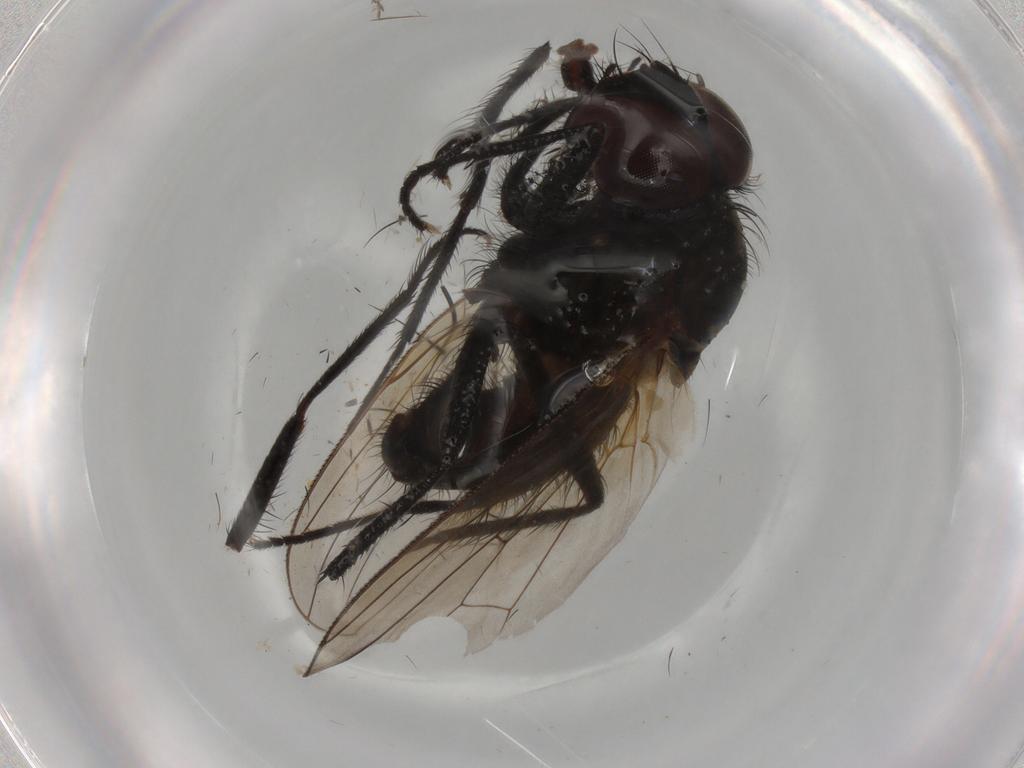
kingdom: Animalia
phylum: Arthropoda
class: Insecta
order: Diptera
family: Anthomyiidae
